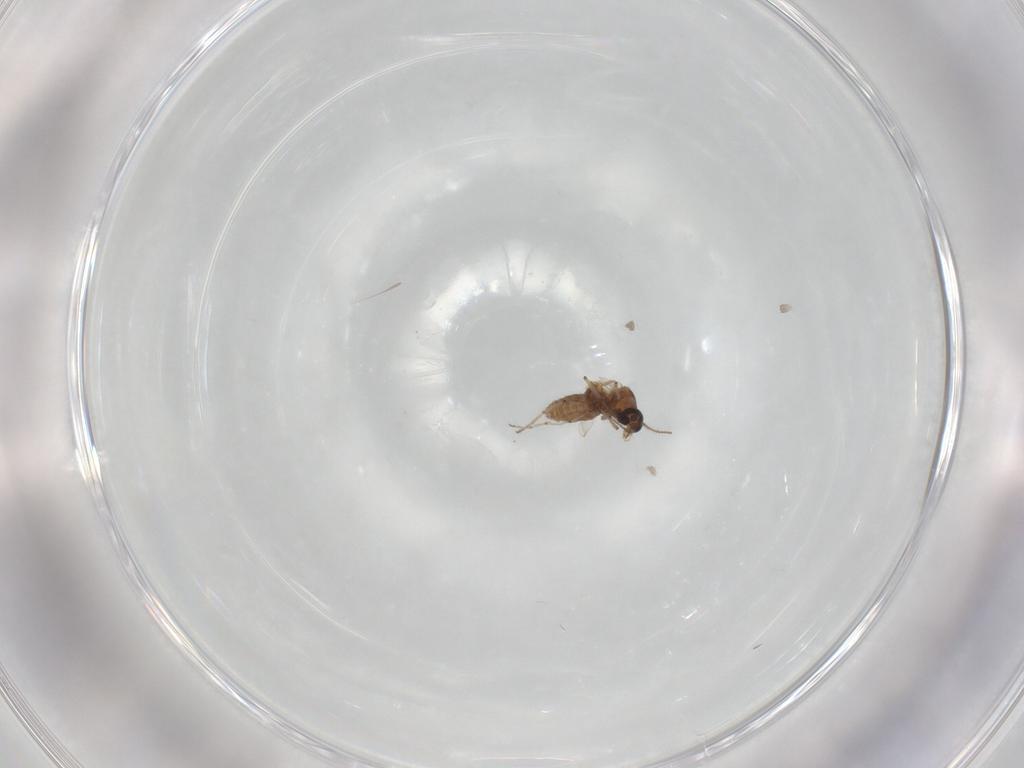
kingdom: Animalia
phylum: Arthropoda
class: Insecta
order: Diptera
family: Ceratopogonidae
